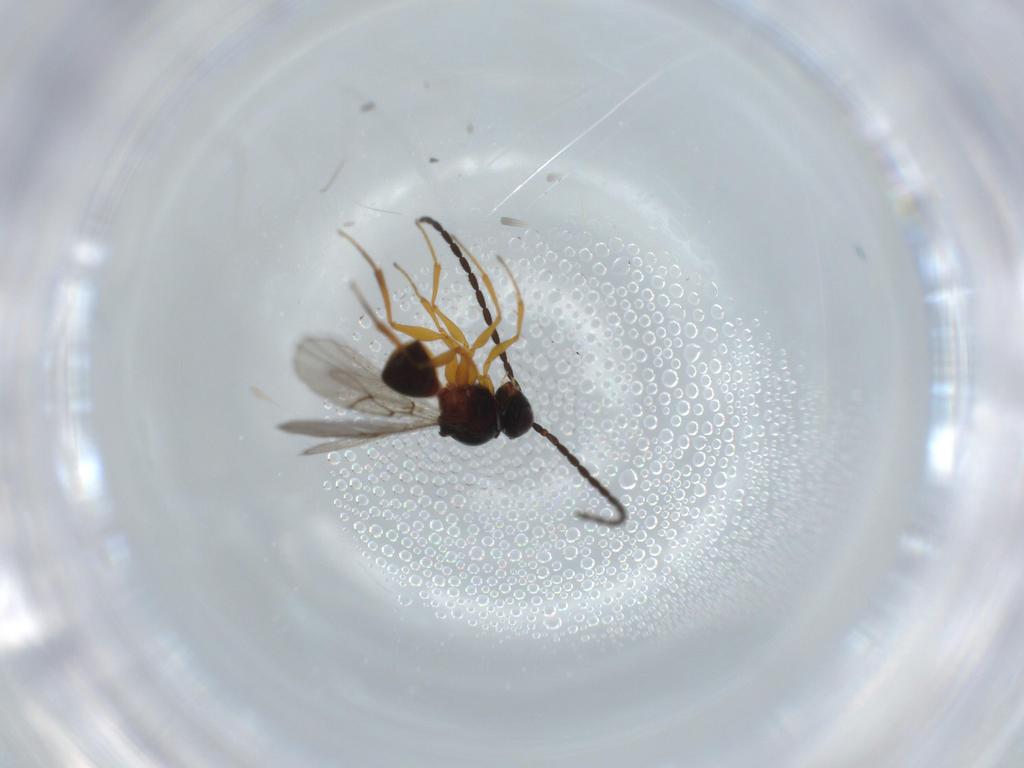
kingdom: Animalia
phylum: Arthropoda
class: Insecta
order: Hymenoptera
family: Figitidae
